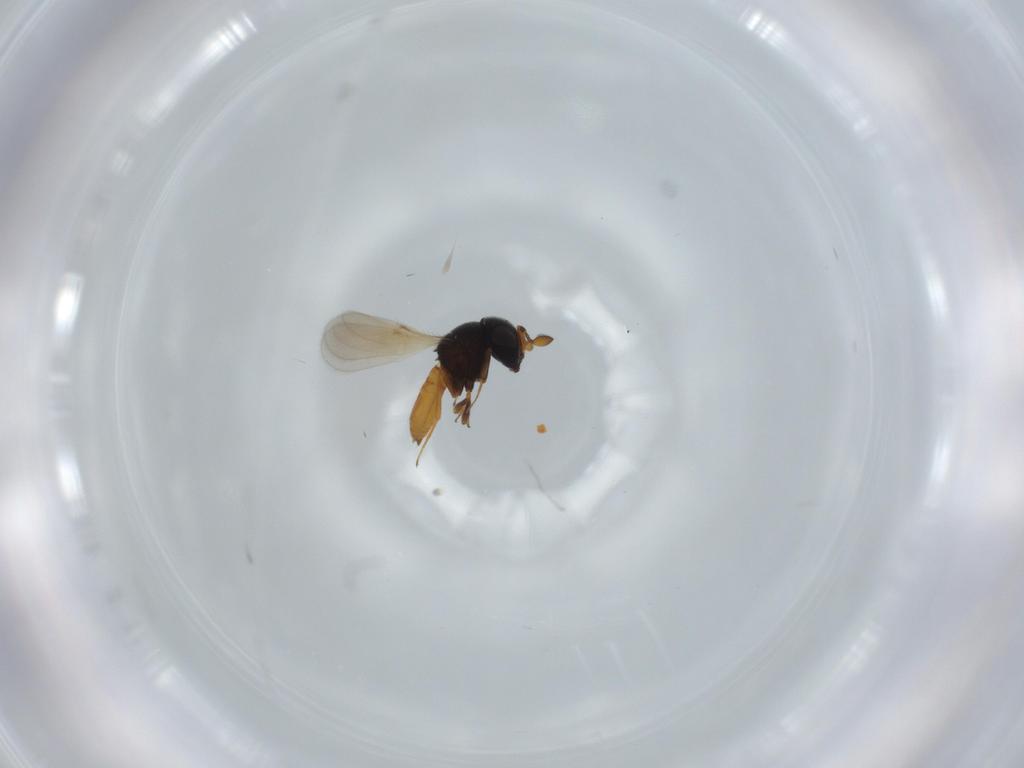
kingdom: Animalia
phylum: Arthropoda
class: Insecta
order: Hymenoptera
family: Scelionidae
